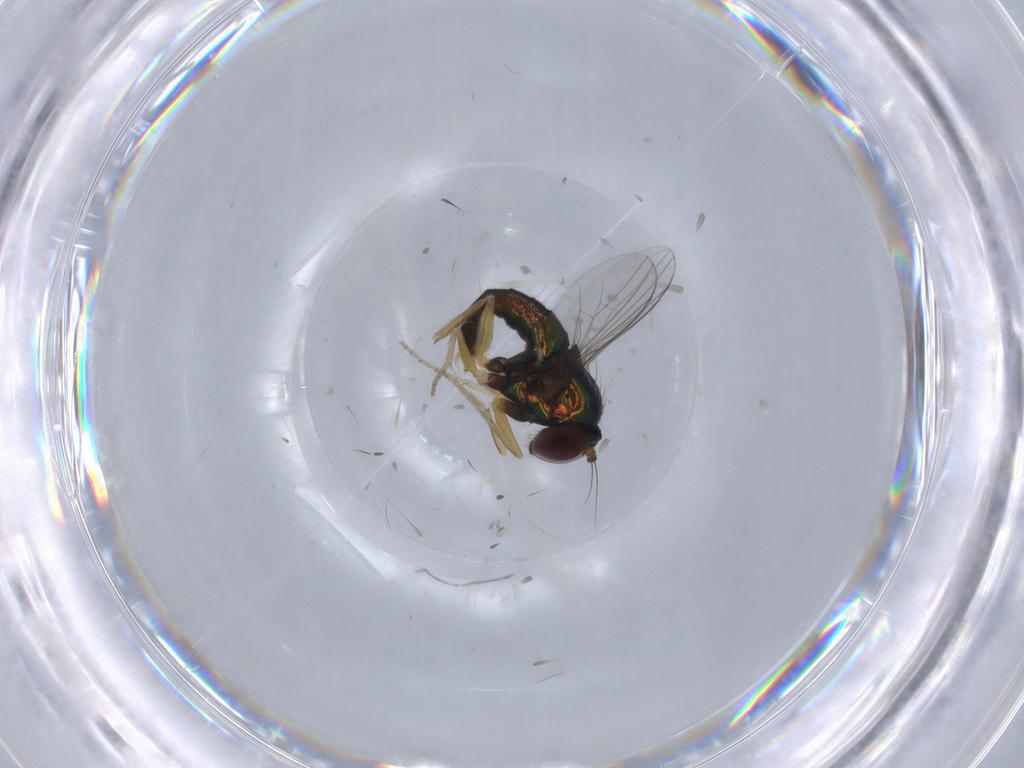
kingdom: Animalia
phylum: Arthropoda
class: Insecta
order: Diptera
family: Dolichopodidae
